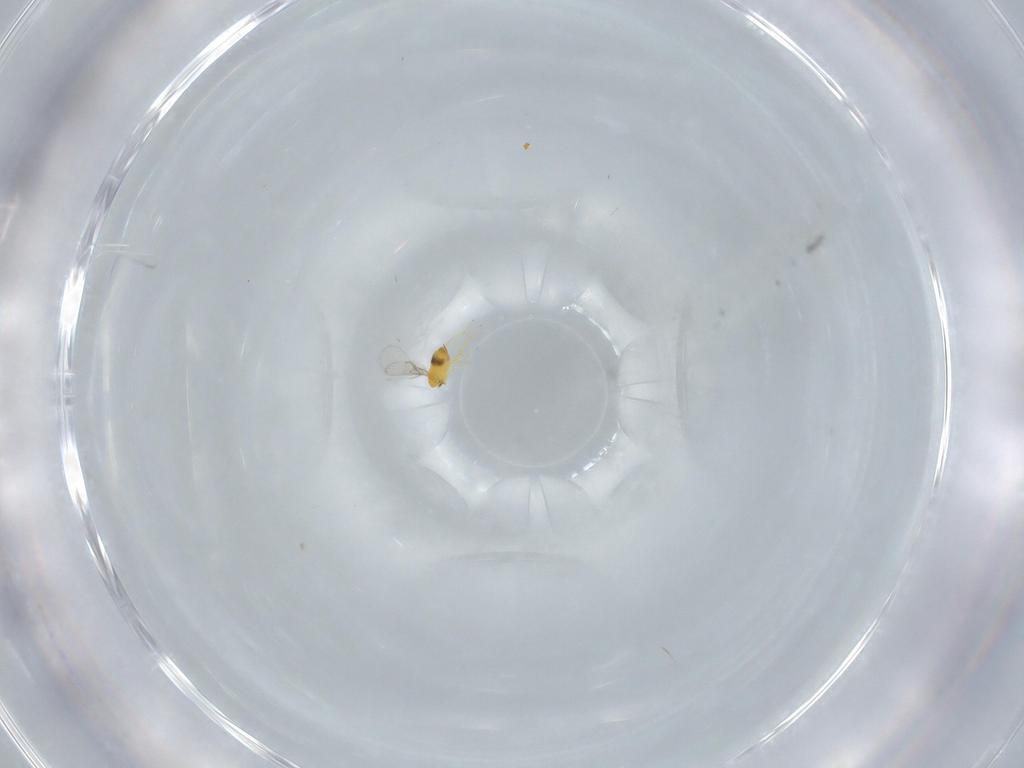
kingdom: Animalia
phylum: Arthropoda
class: Insecta
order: Hymenoptera
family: Trichogrammatidae
